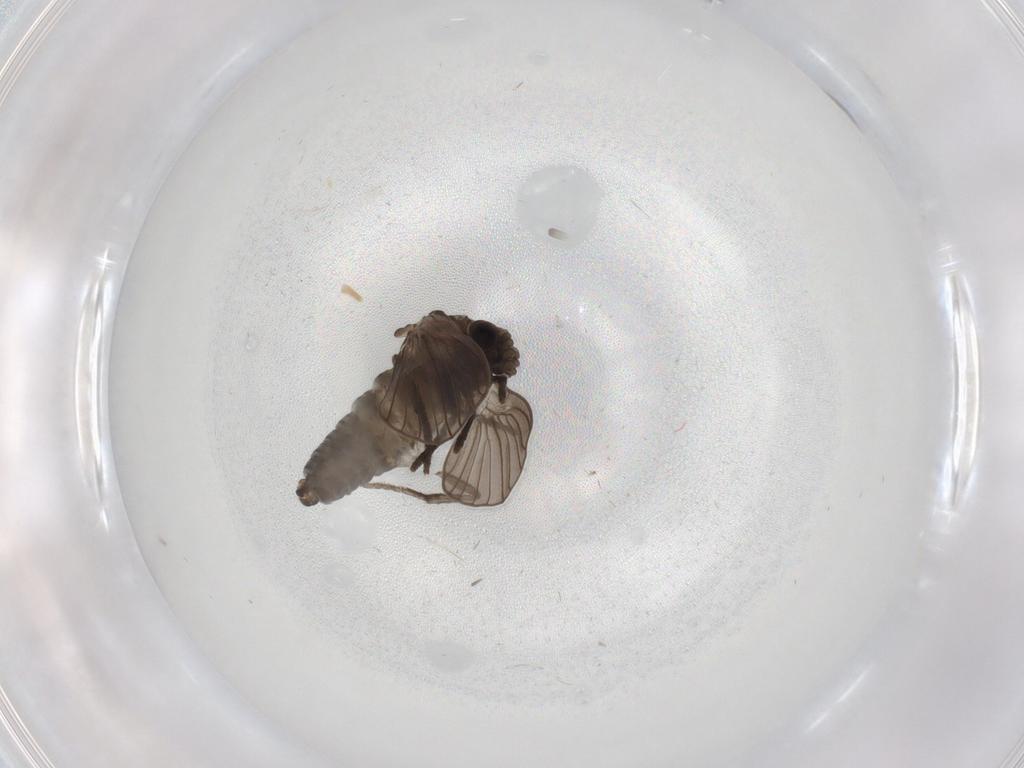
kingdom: Animalia
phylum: Arthropoda
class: Insecta
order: Diptera
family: Psychodidae
